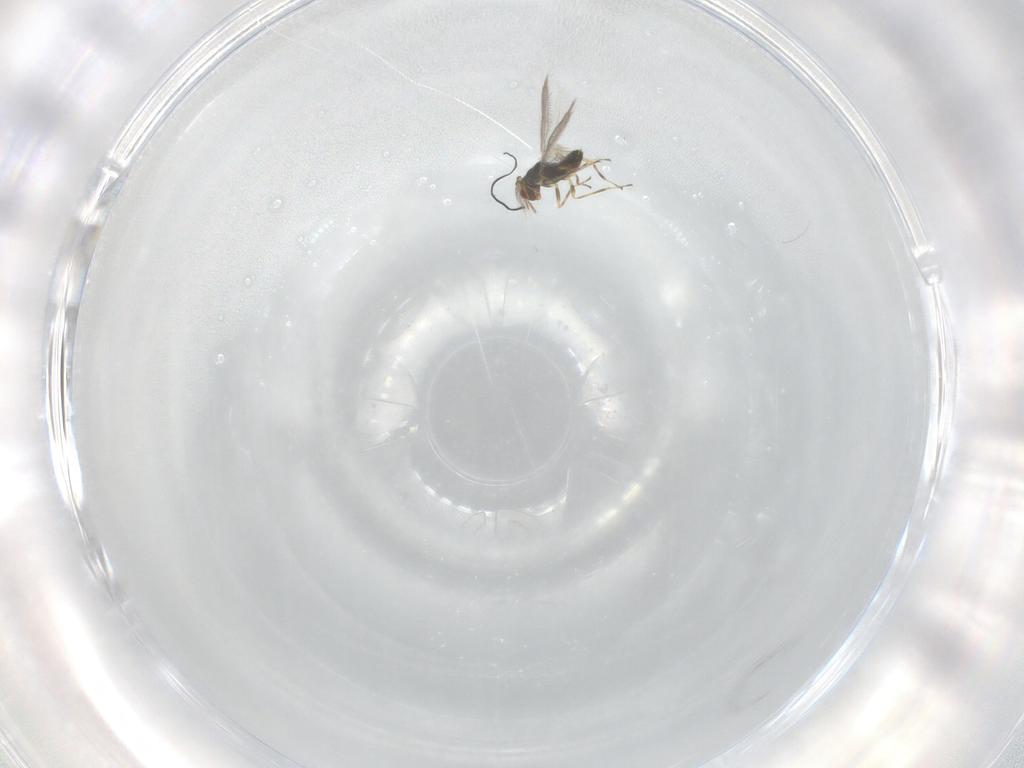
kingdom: Animalia
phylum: Arthropoda
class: Insecta
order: Hymenoptera
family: Eulophidae
